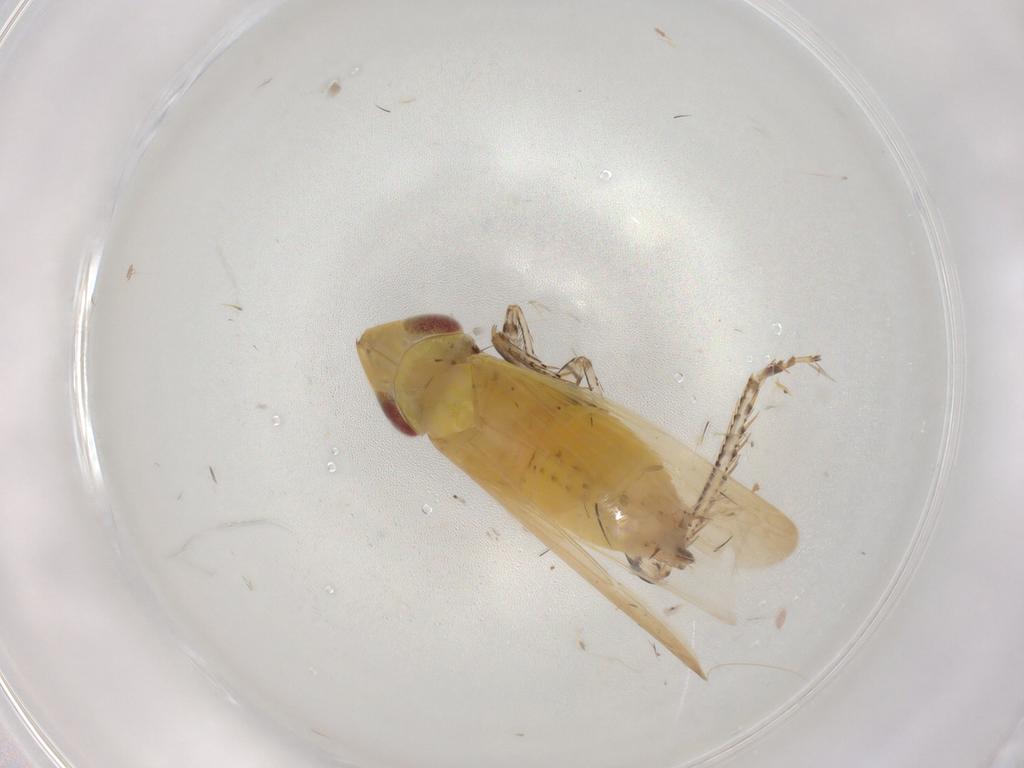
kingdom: Animalia
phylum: Arthropoda
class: Insecta
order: Hemiptera
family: Cicadellidae
